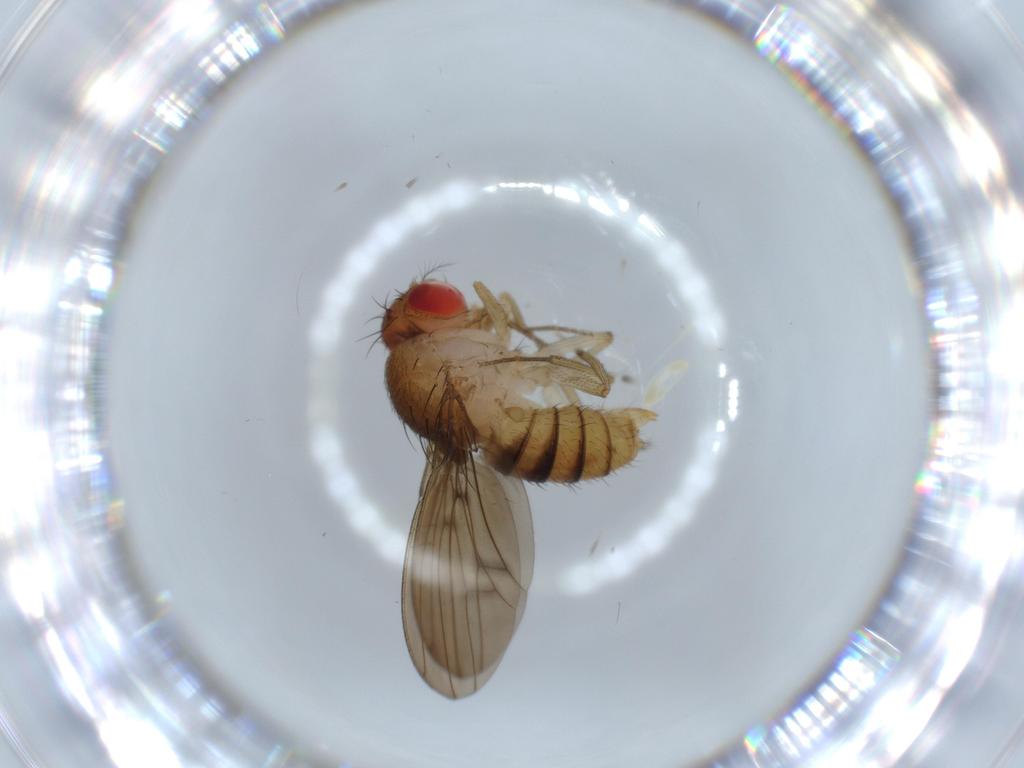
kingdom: Animalia
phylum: Arthropoda
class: Insecta
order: Diptera
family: Drosophilidae
